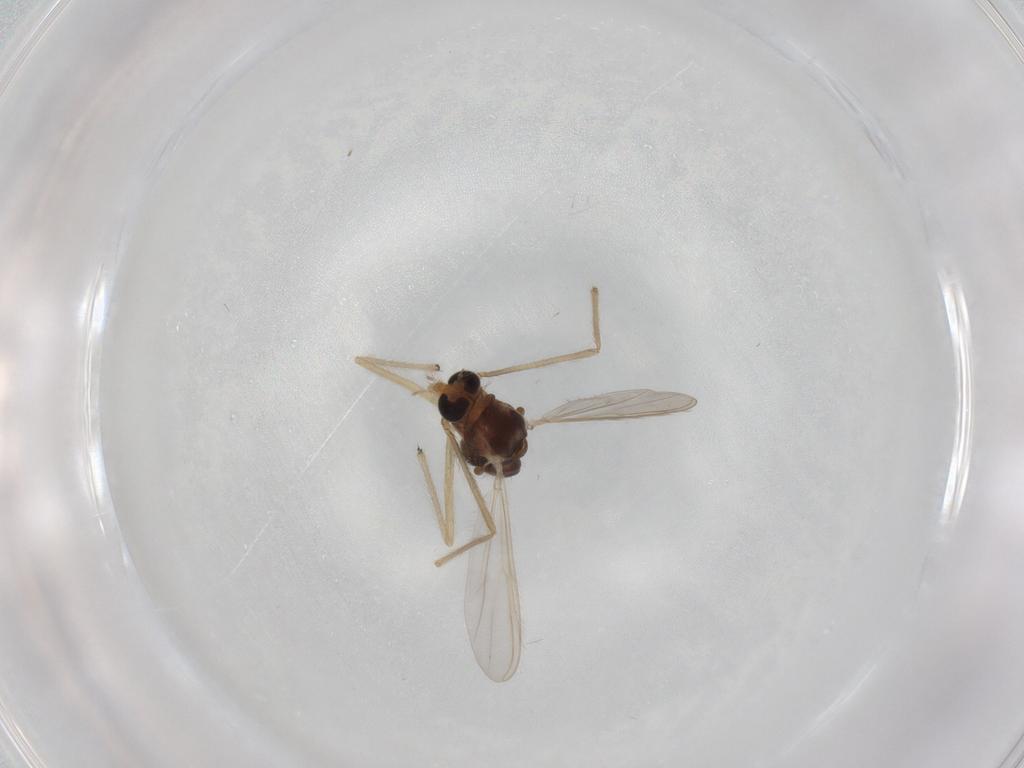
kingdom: Animalia
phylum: Arthropoda
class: Insecta
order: Diptera
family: Chironomidae
